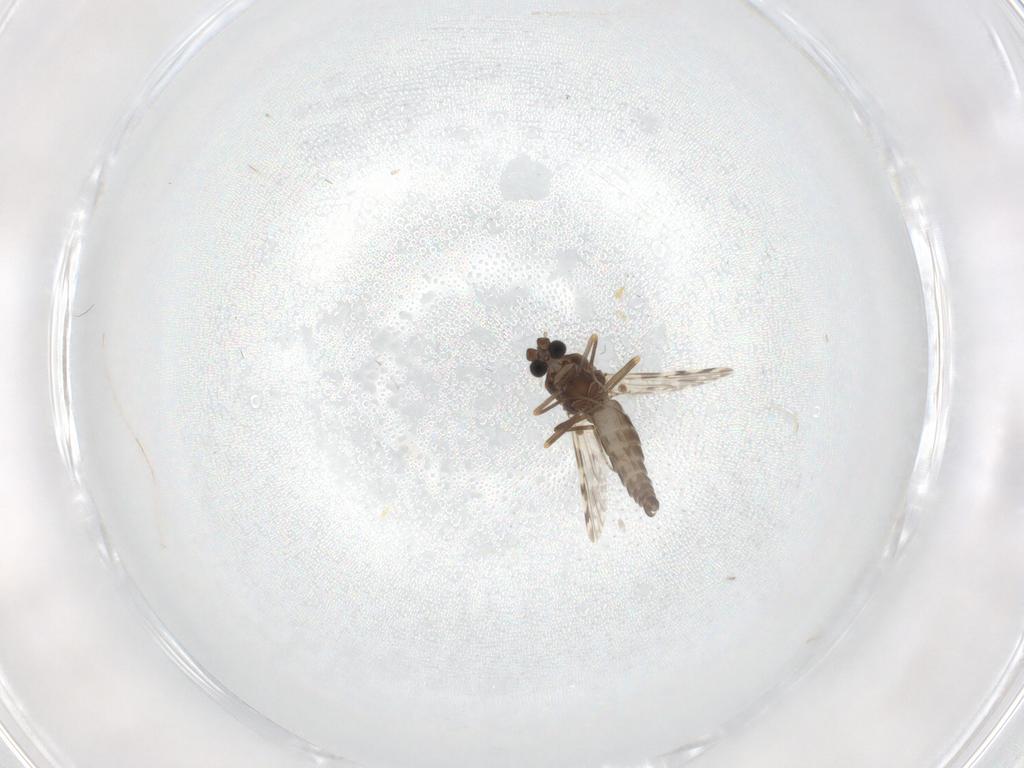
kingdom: Animalia
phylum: Arthropoda
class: Insecta
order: Diptera
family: Ceratopogonidae
